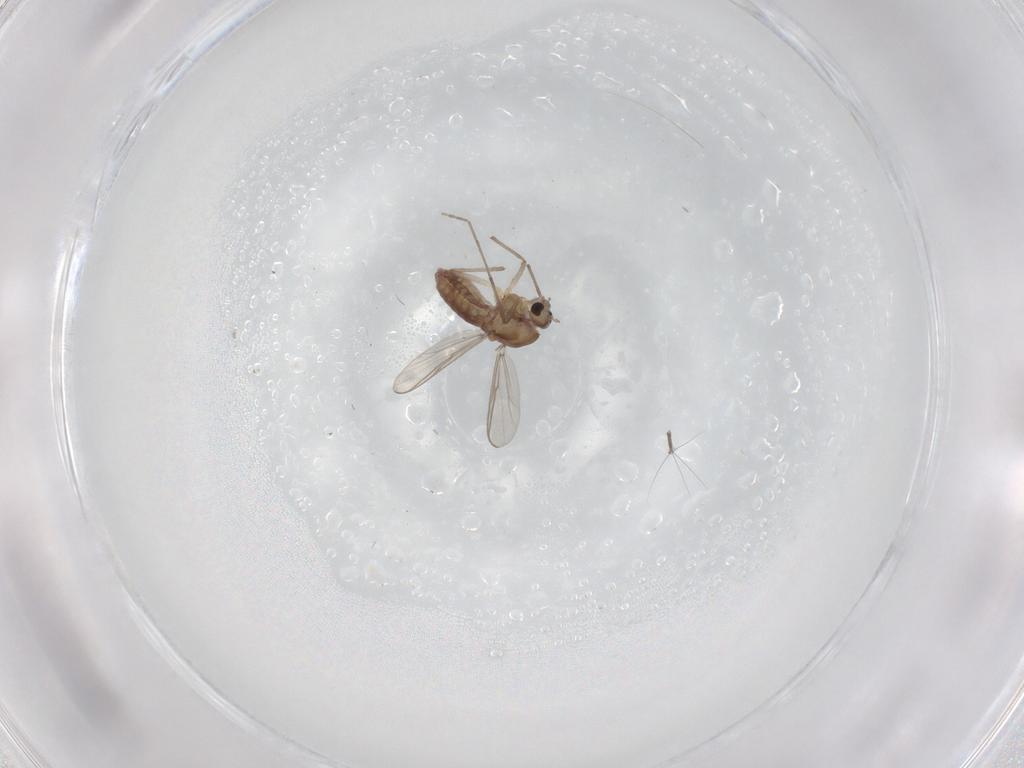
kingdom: Animalia
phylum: Arthropoda
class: Insecta
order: Diptera
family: Chironomidae
